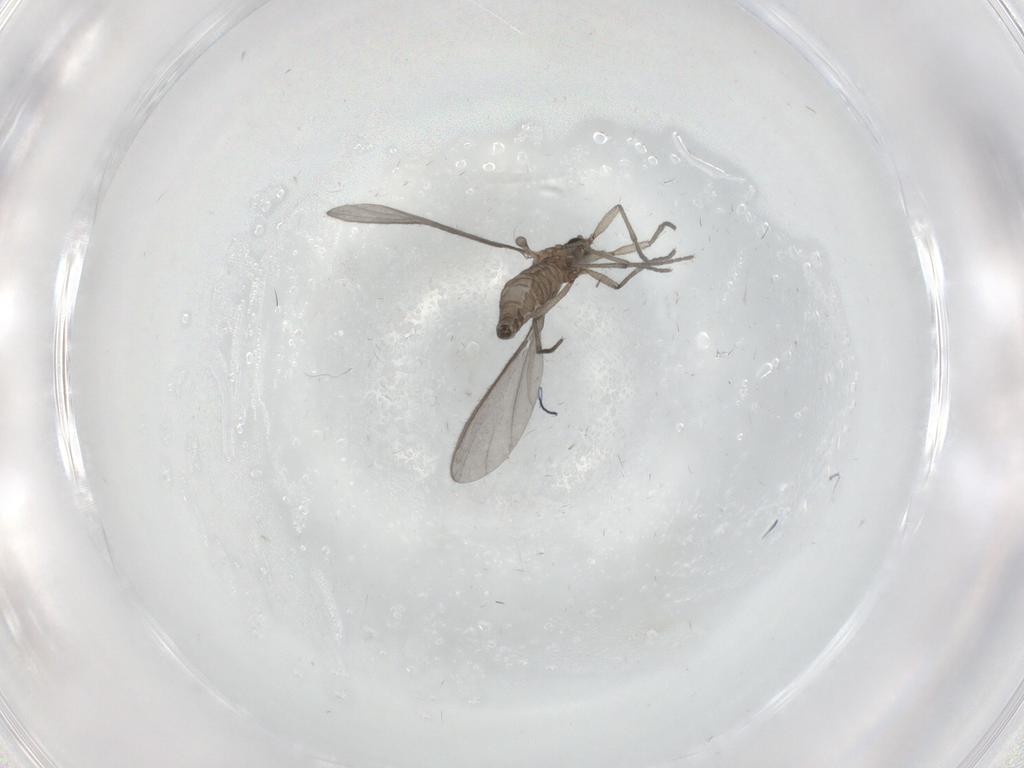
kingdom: Animalia
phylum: Arthropoda
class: Insecta
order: Diptera
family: Sciaridae
